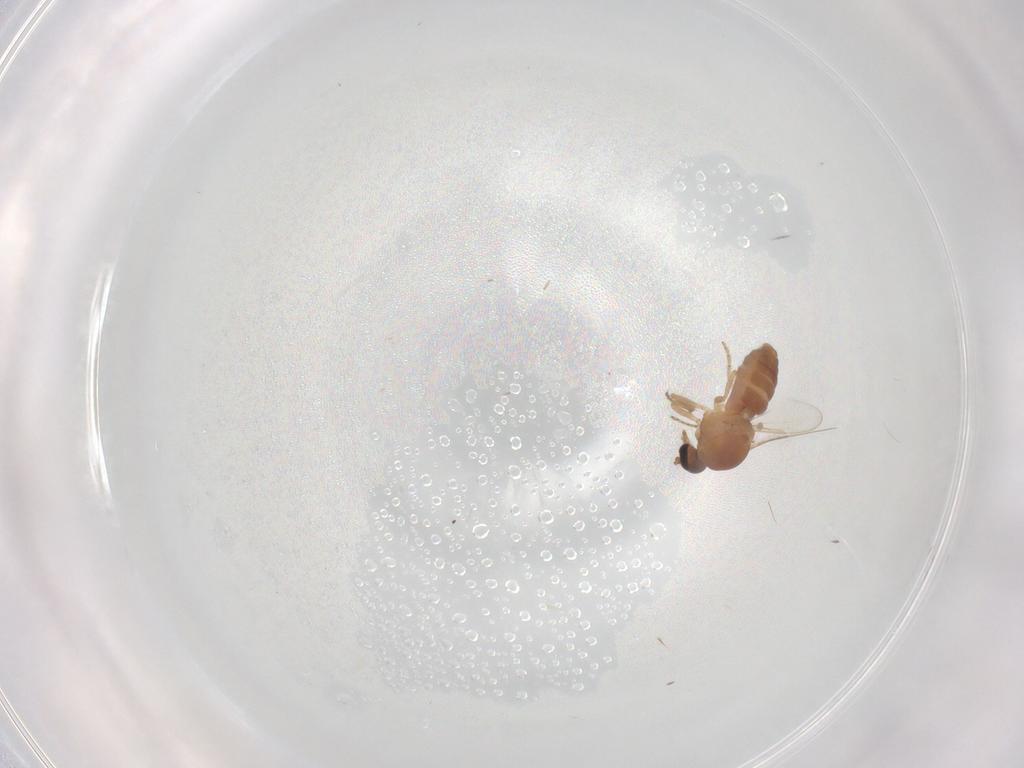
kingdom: Animalia
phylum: Arthropoda
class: Insecta
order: Diptera
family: Ceratopogonidae
